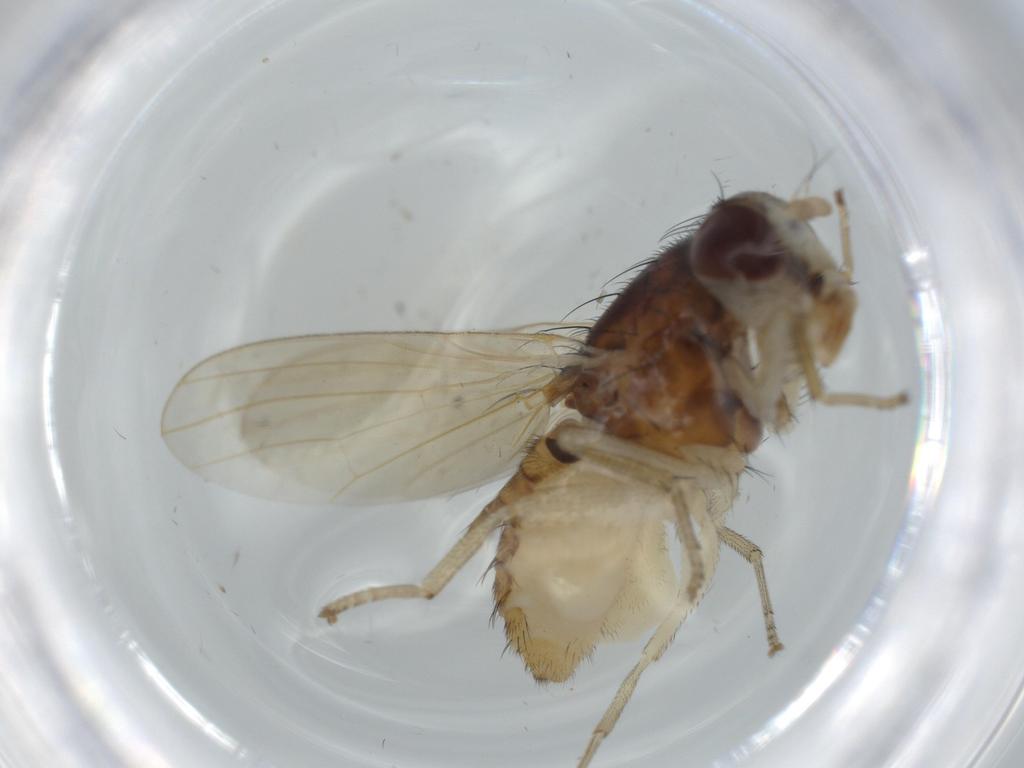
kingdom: Animalia
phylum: Arthropoda
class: Insecta
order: Diptera
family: Lauxaniidae
